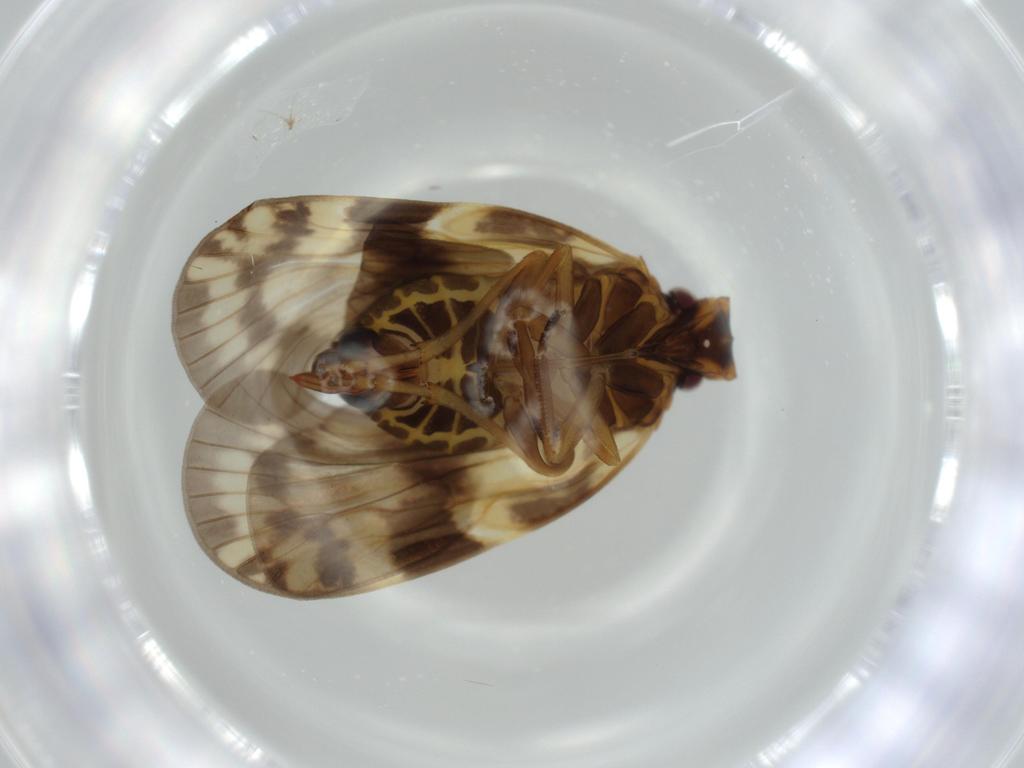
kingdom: Animalia
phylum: Arthropoda
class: Insecta
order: Hemiptera
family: Cixiidae
